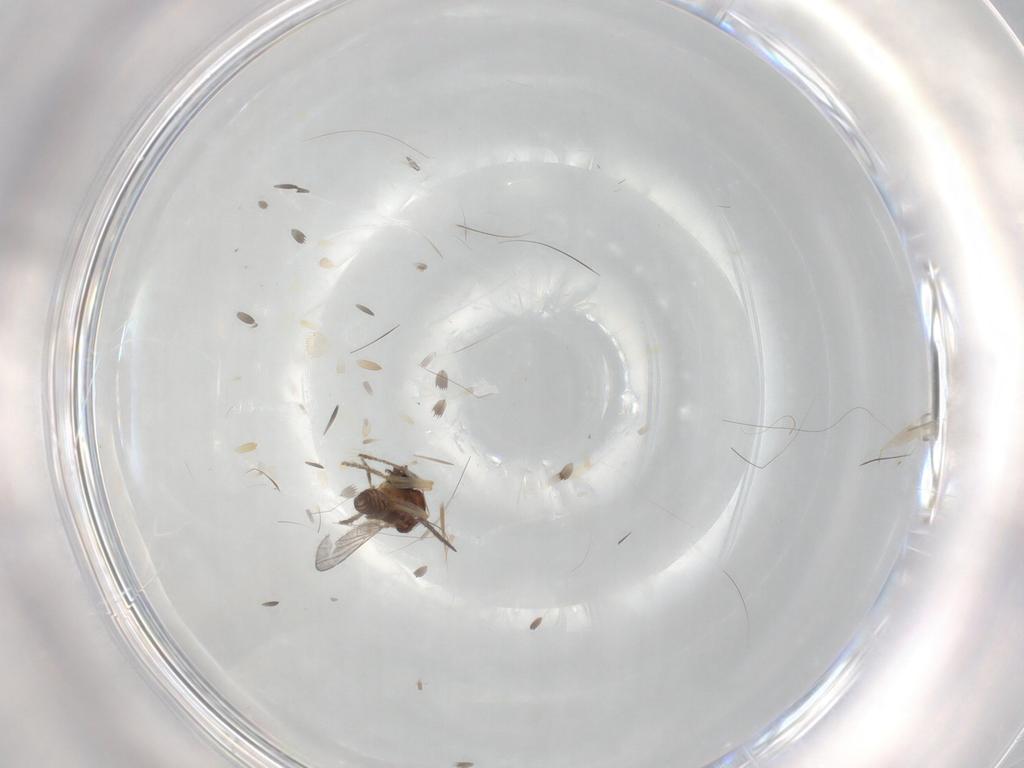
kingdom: Animalia
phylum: Arthropoda
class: Insecta
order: Diptera
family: Ceratopogonidae
